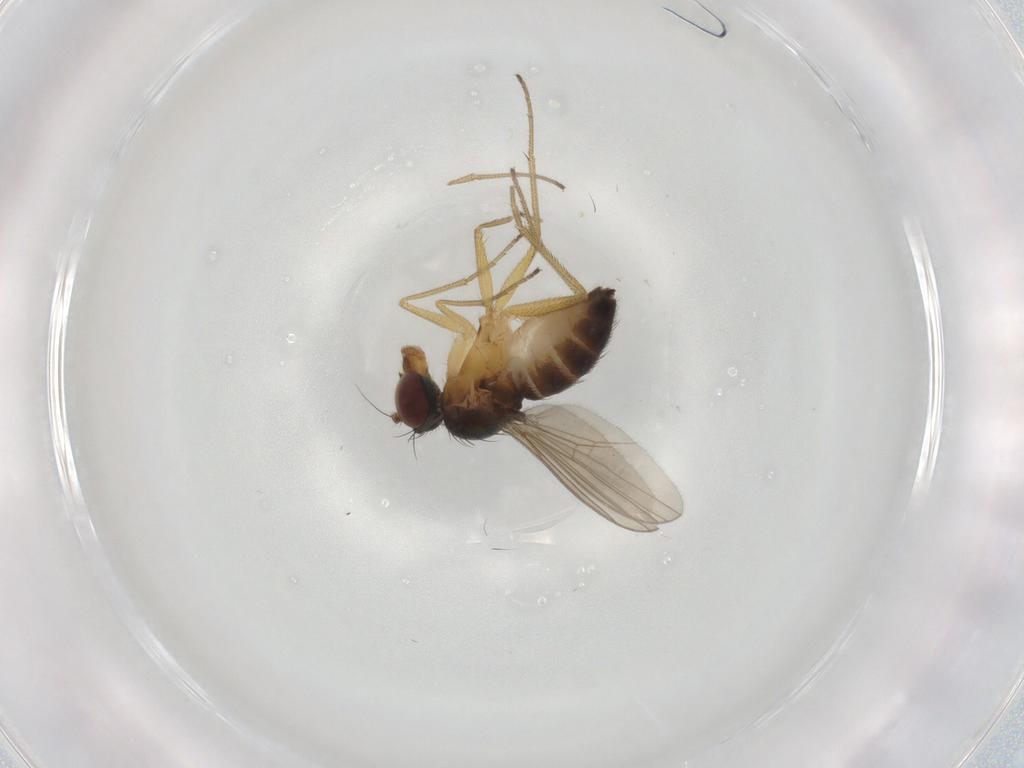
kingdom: Animalia
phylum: Arthropoda
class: Insecta
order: Diptera
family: Dolichopodidae
